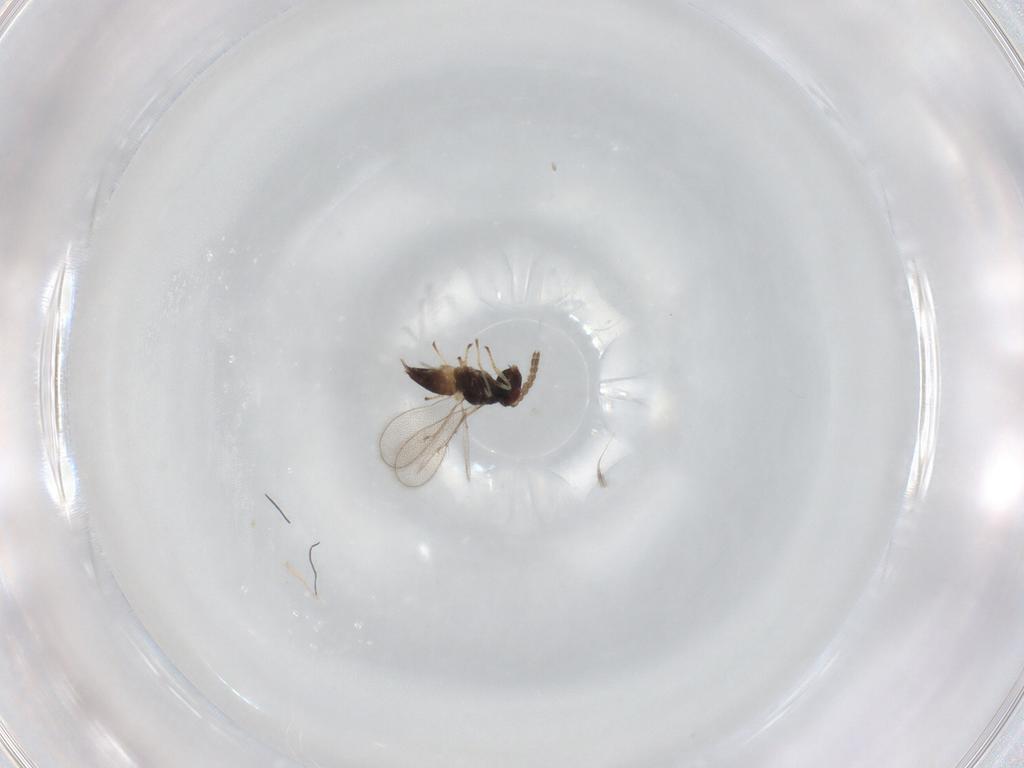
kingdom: Animalia
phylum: Arthropoda
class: Insecta
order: Hymenoptera
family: Eulophidae
